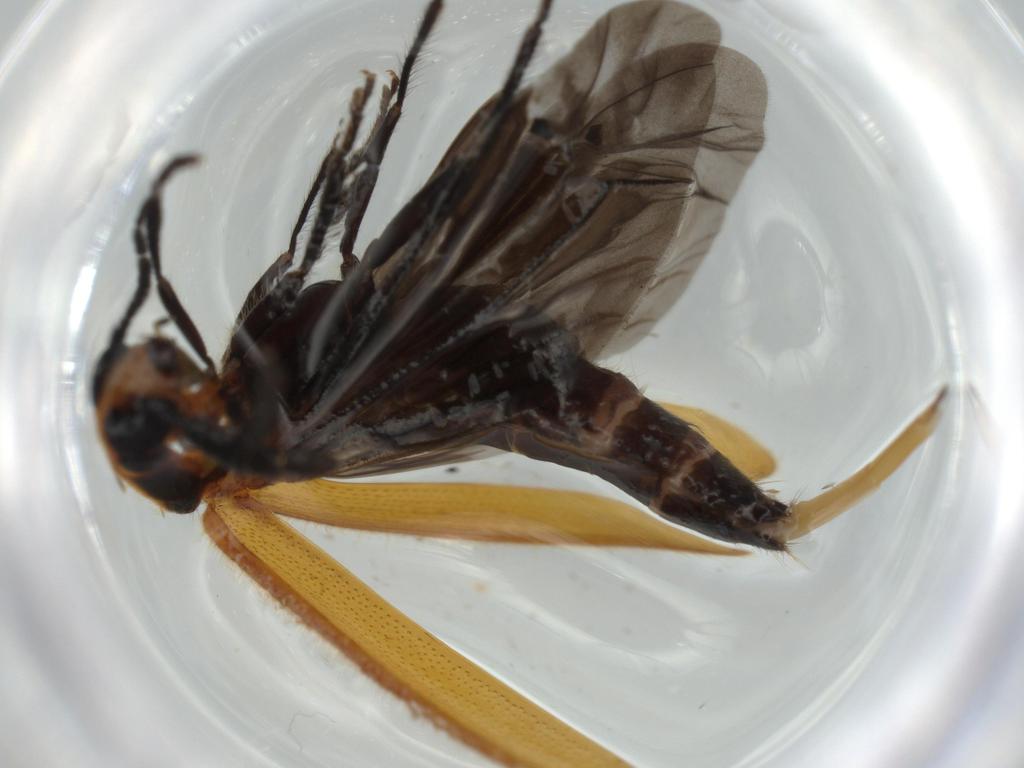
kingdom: Animalia
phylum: Arthropoda
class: Insecta
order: Coleoptera
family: Cleridae
